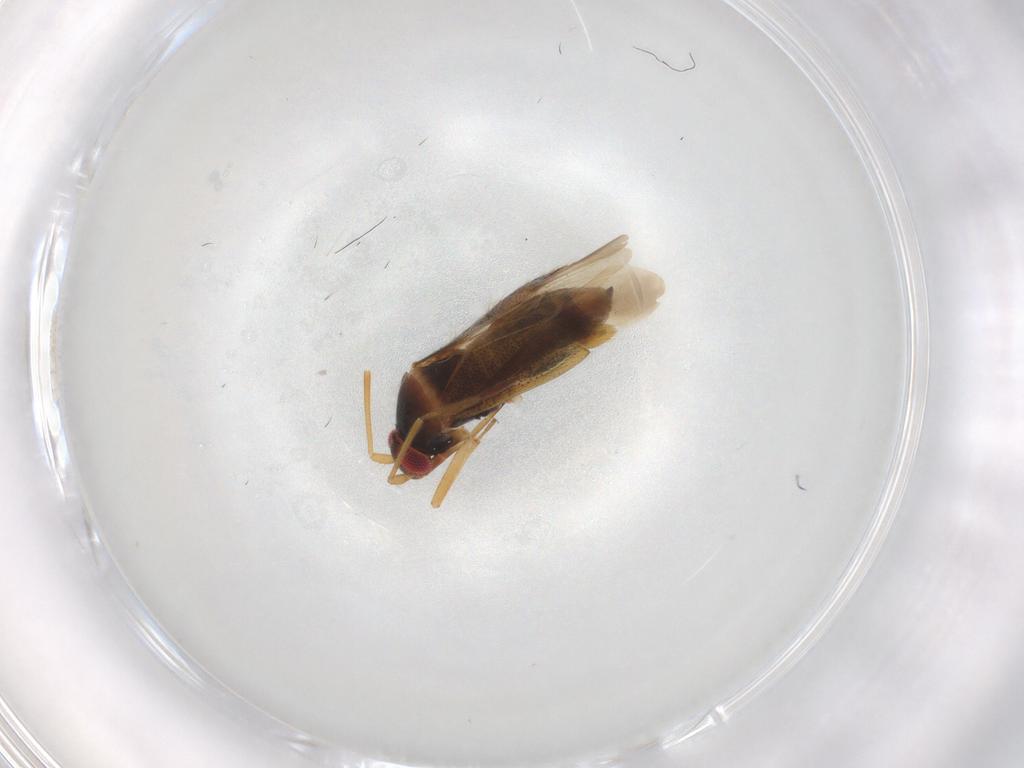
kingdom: Animalia
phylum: Arthropoda
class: Insecta
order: Hemiptera
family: Miridae
